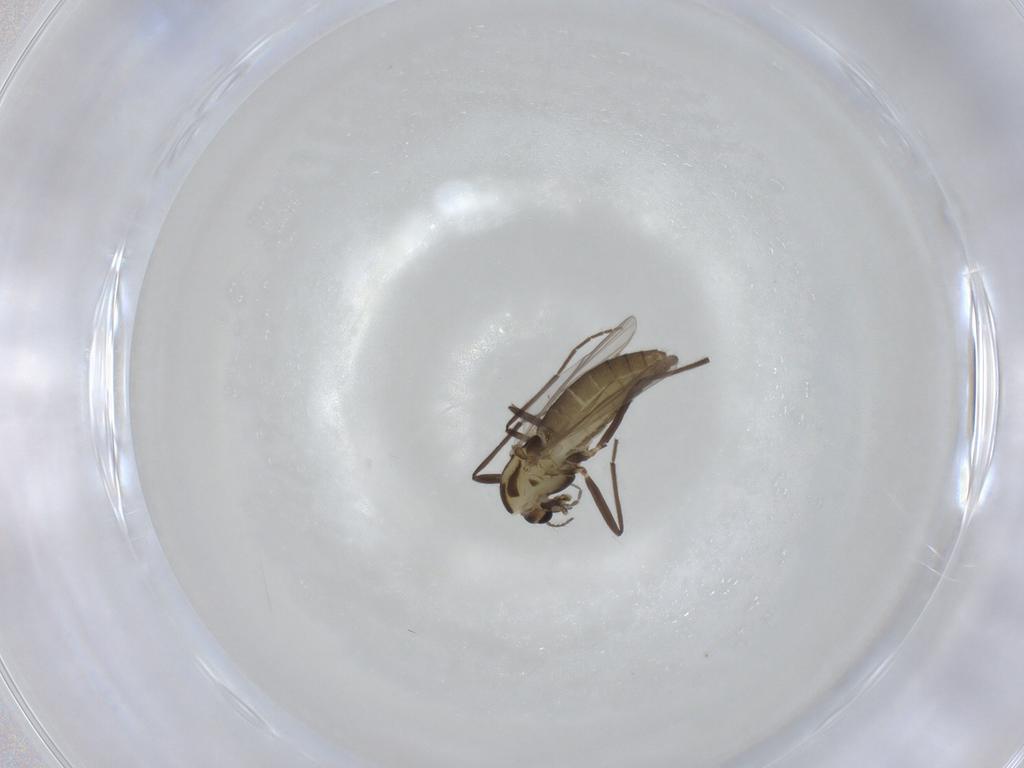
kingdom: Animalia
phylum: Arthropoda
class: Insecta
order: Diptera
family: Chironomidae
